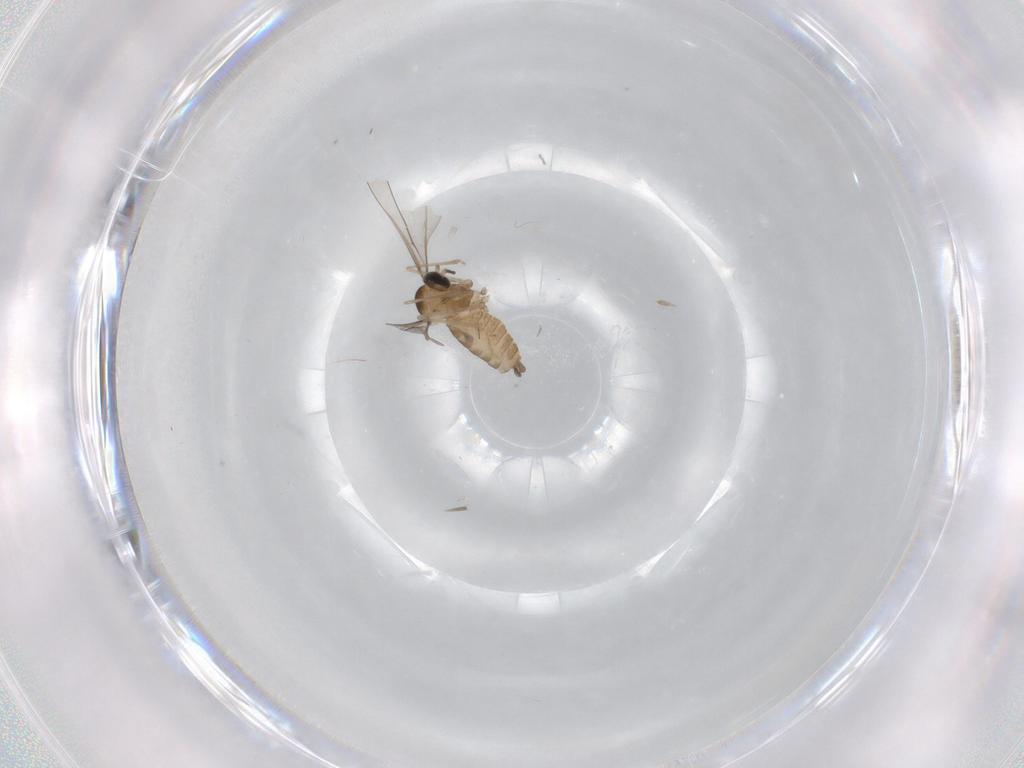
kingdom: Animalia
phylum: Arthropoda
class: Insecta
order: Diptera
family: Cecidomyiidae
